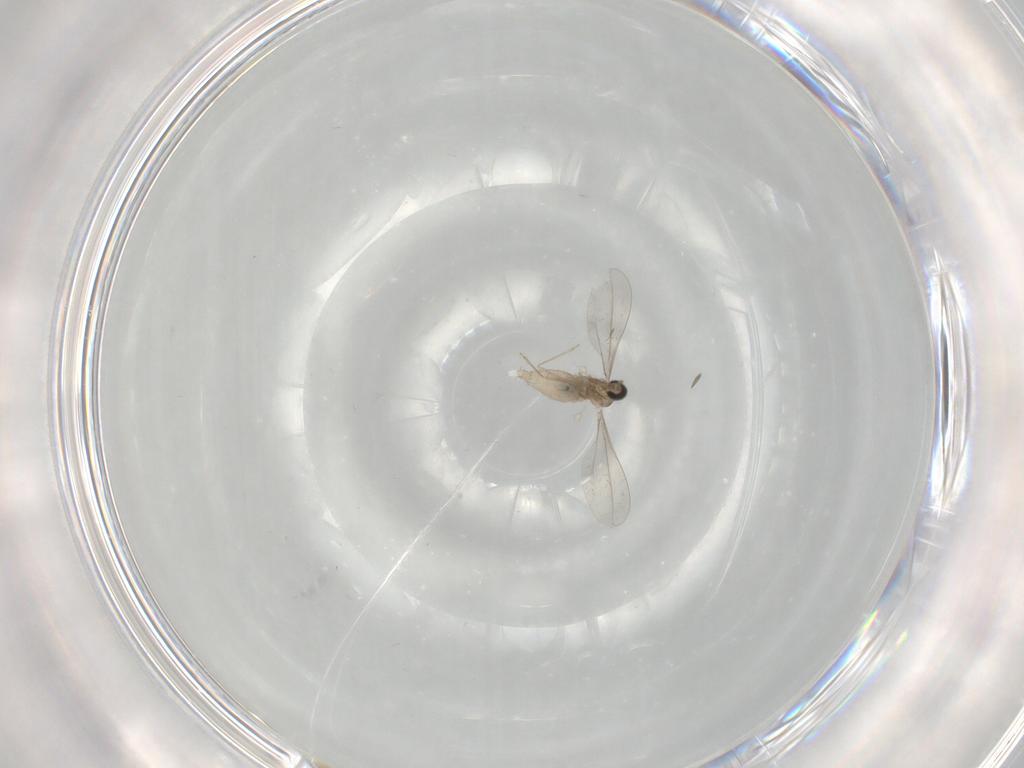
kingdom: Animalia
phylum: Arthropoda
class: Insecta
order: Diptera
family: Cecidomyiidae
